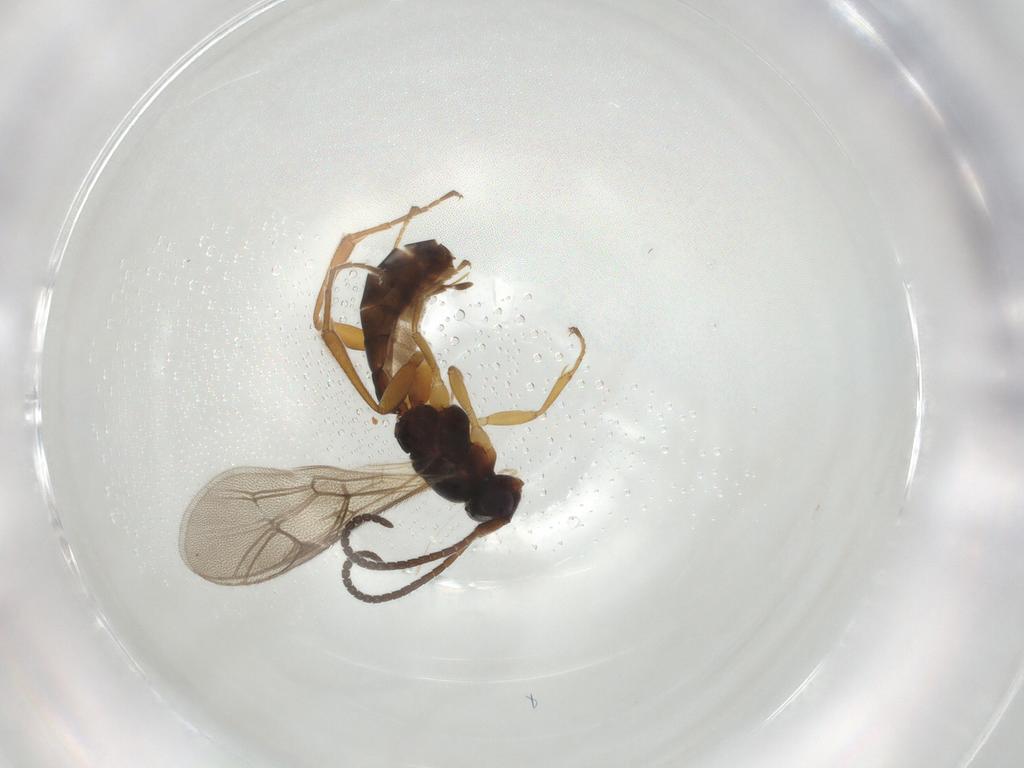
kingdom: Animalia
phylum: Arthropoda
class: Insecta
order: Hymenoptera
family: Ichneumonidae
